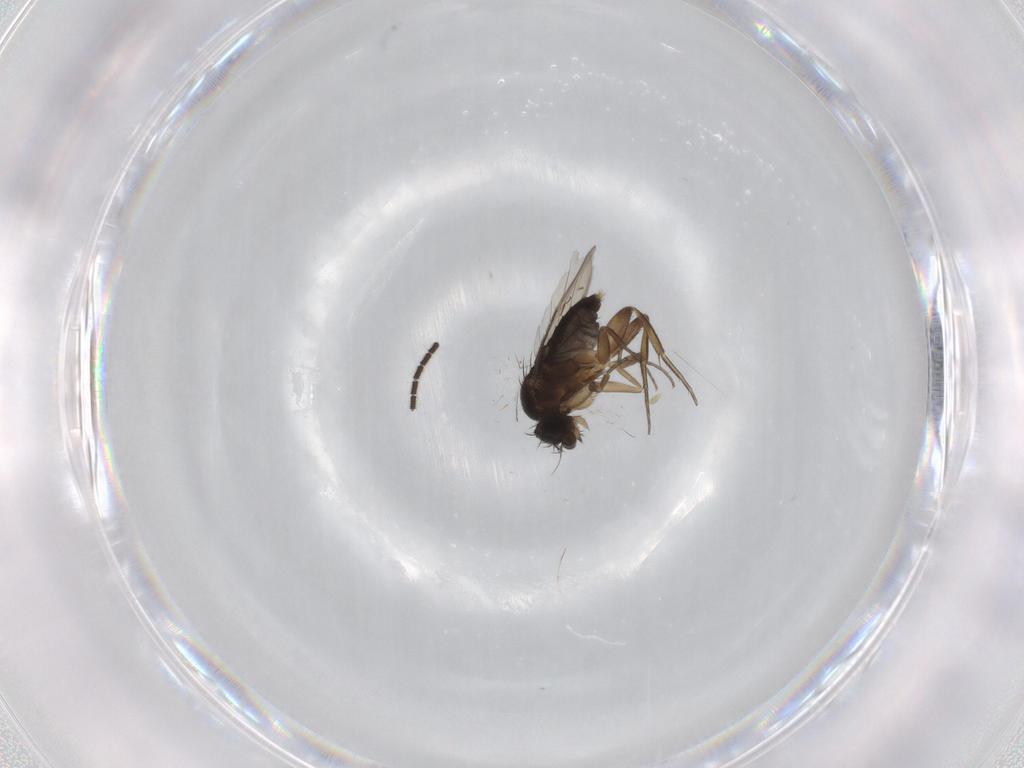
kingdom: Animalia
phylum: Arthropoda
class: Insecta
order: Diptera
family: Phoridae
